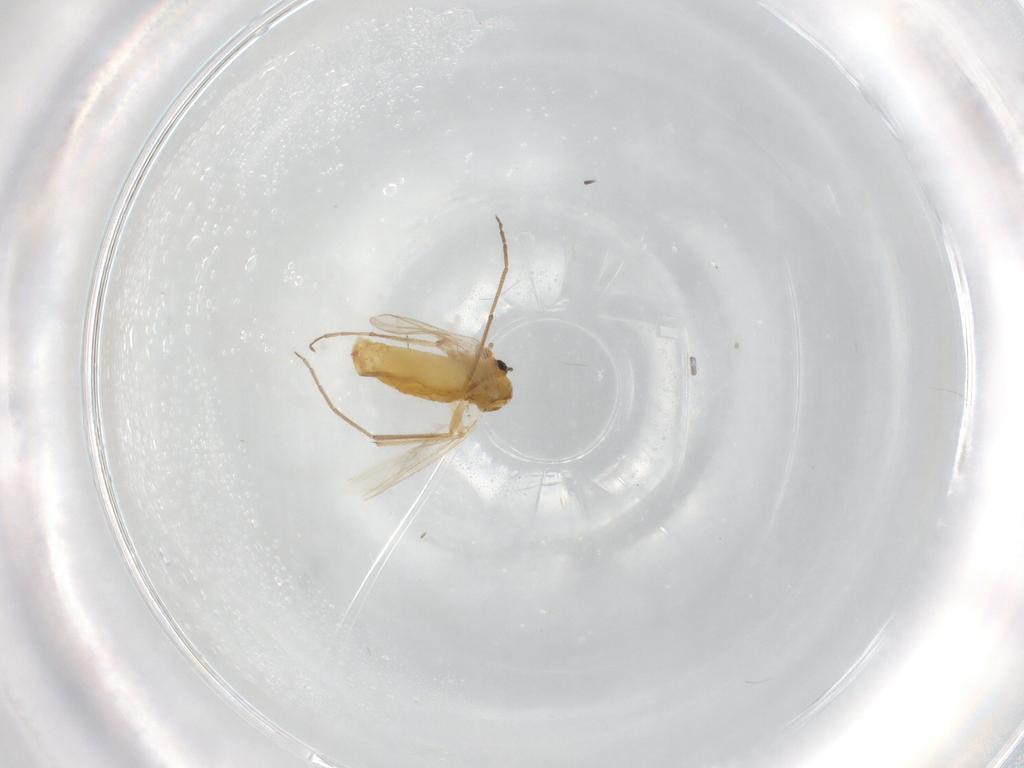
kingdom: Animalia
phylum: Arthropoda
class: Insecta
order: Diptera
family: Chironomidae
